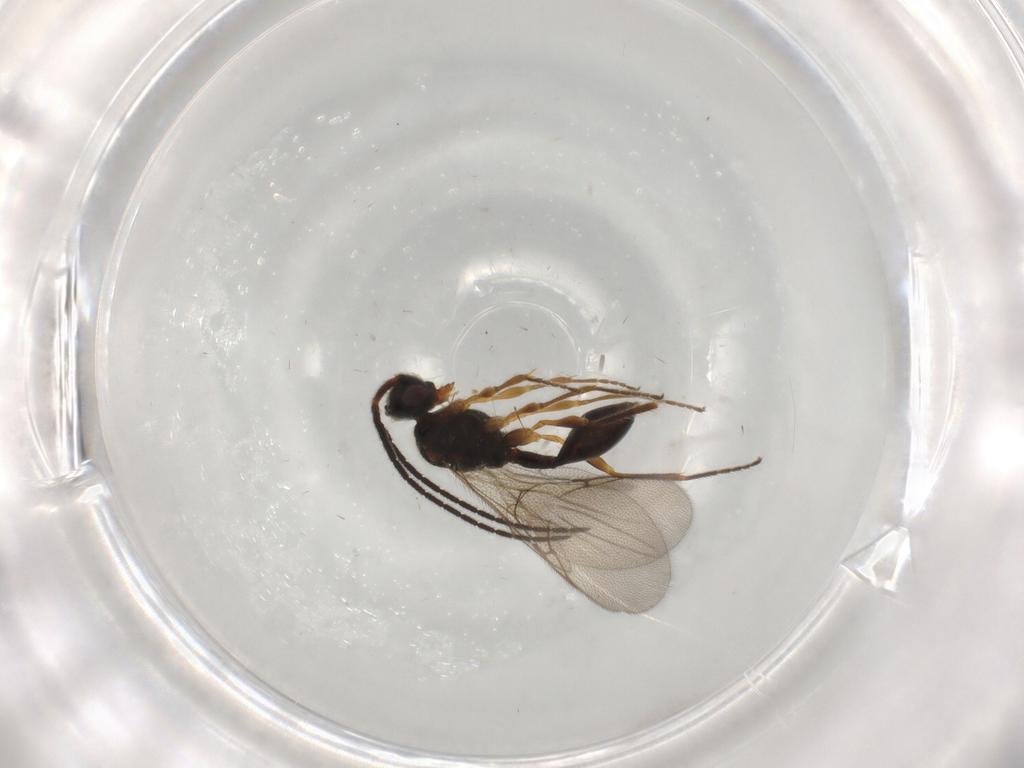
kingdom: Animalia
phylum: Arthropoda
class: Insecta
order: Hymenoptera
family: Diapriidae
